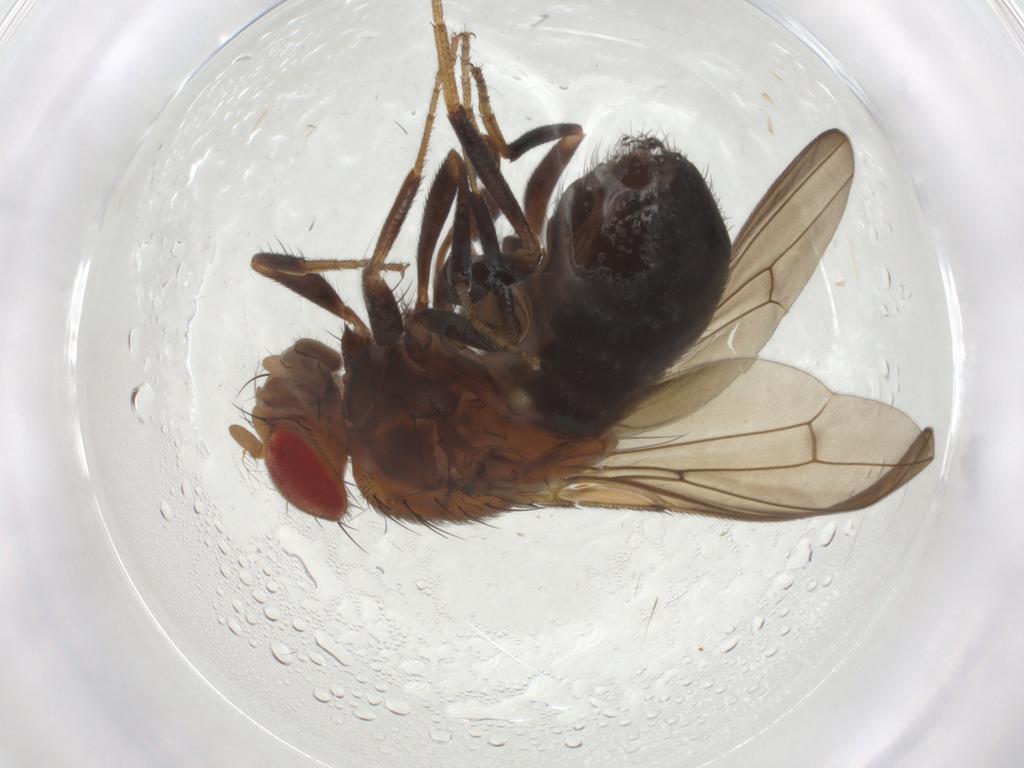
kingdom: Animalia
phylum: Arthropoda
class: Insecta
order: Diptera
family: Drosophilidae
